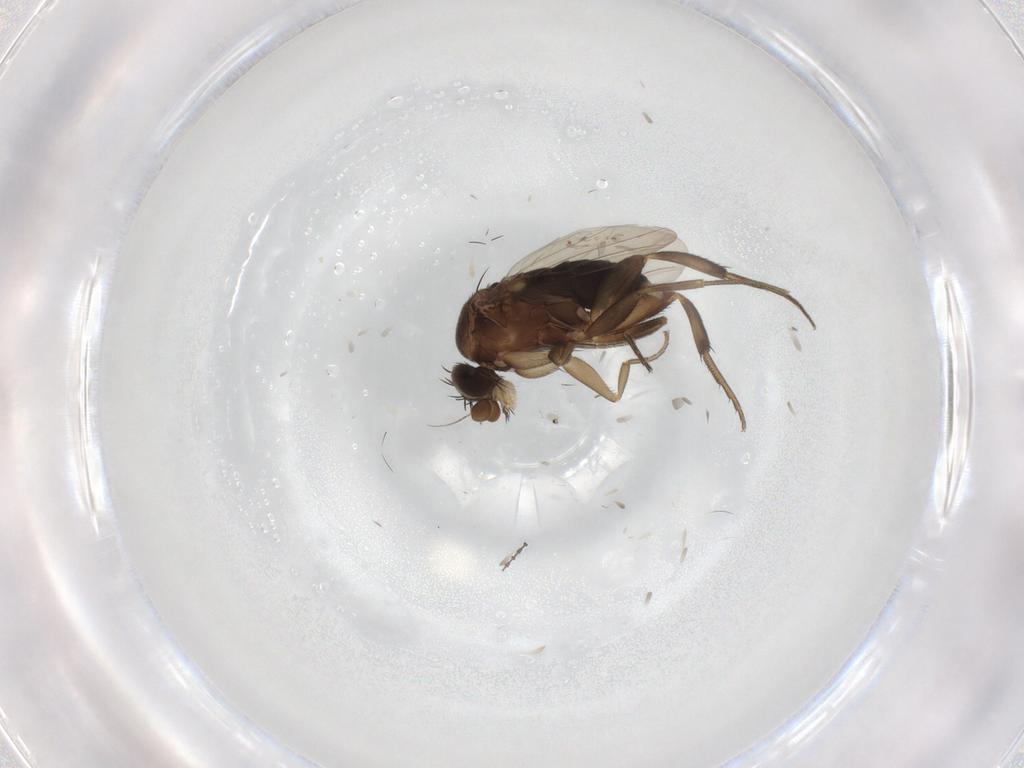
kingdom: Animalia
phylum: Arthropoda
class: Insecta
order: Diptera
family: Phoridae
